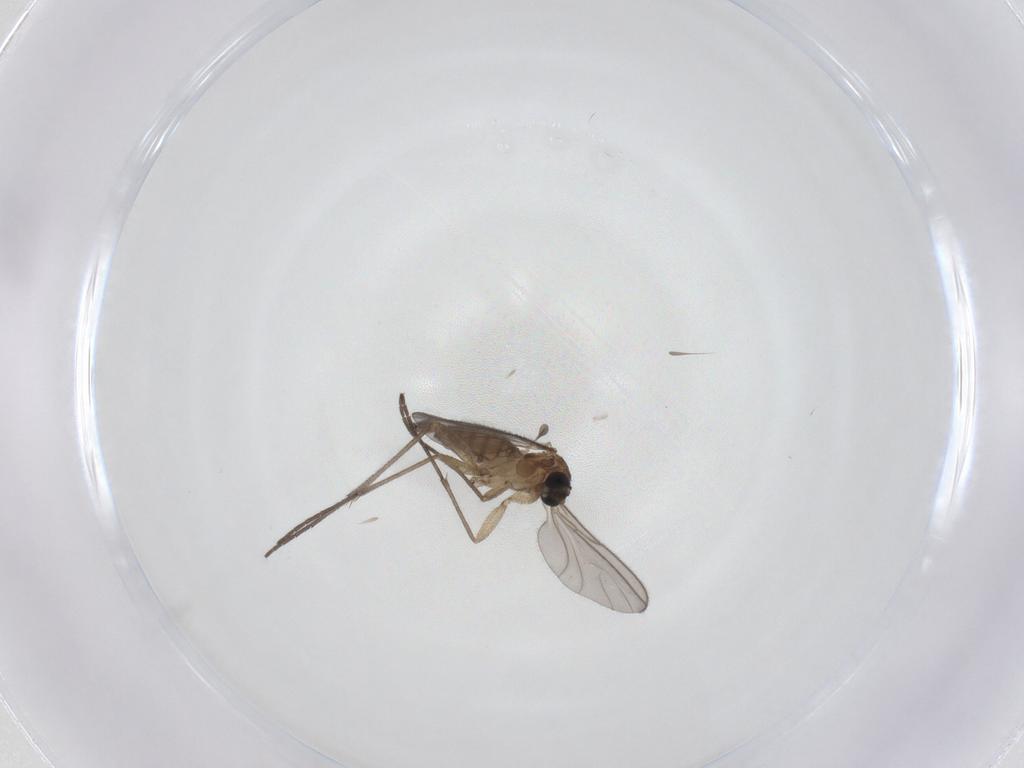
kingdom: Animalia
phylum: Arthropoda
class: Insecta
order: Diptera
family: Sciaridae
